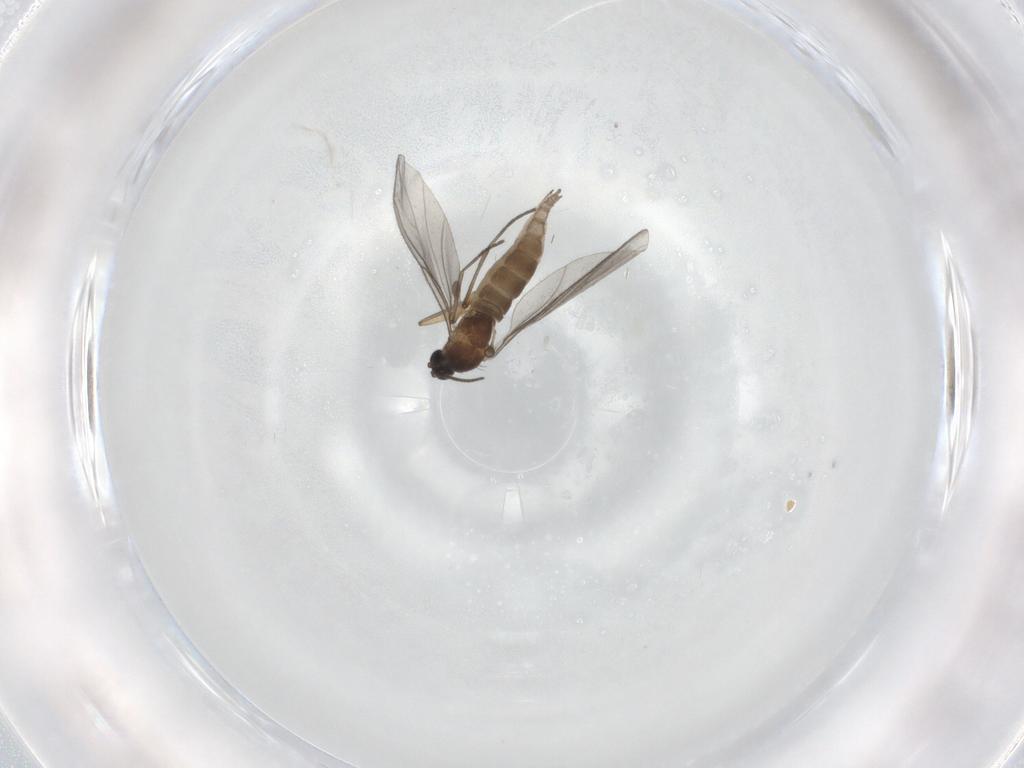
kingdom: Animalia
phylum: Arthropoda
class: Insecta
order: Diptera
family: Sciaridae
